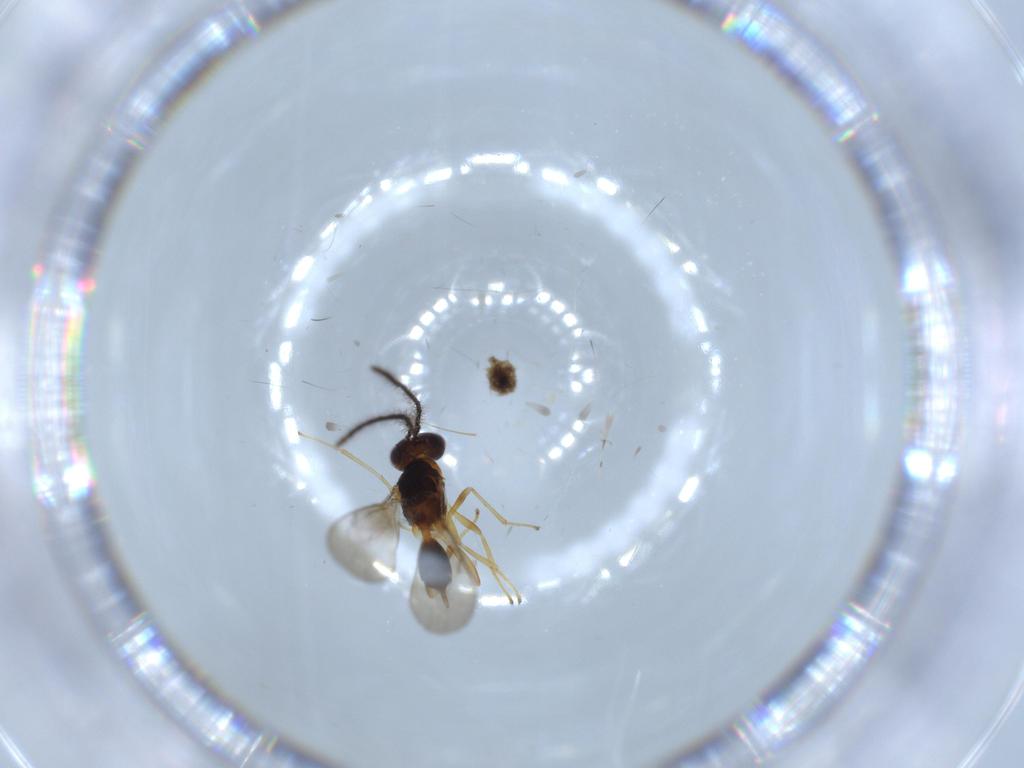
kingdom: Animalia
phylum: Arthropoda
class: Insecta
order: Hymenoptera
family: Diparidae
